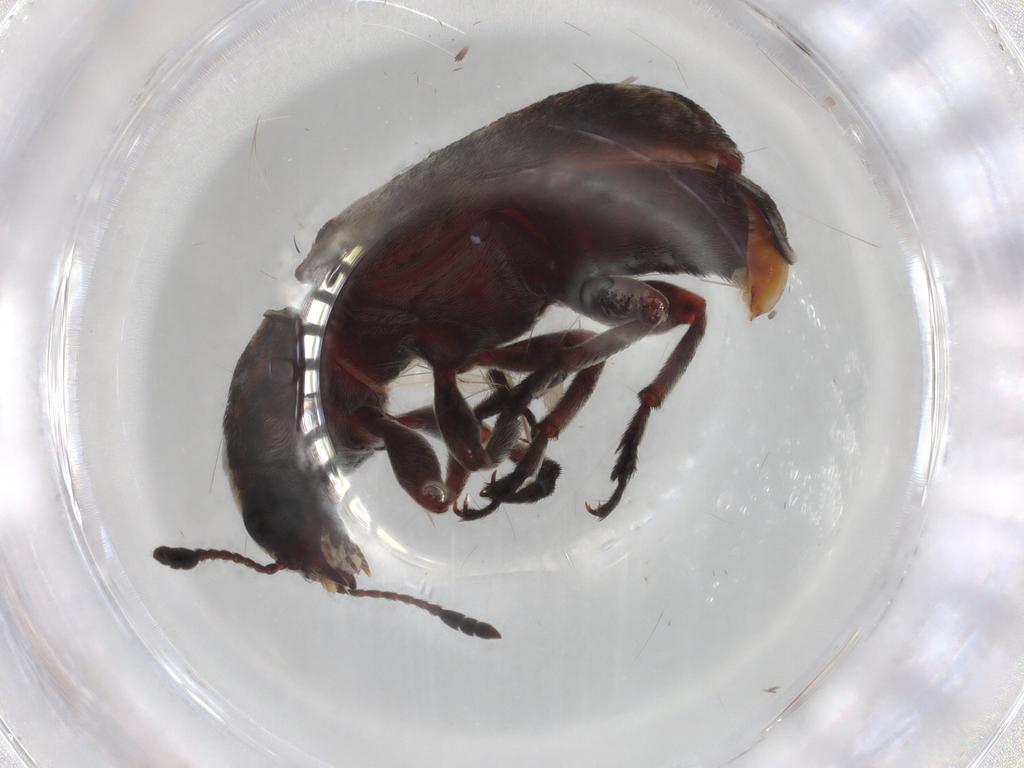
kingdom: Animalia
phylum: Arthropoda
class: Insecta
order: Coleoptera
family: Anthribidae
